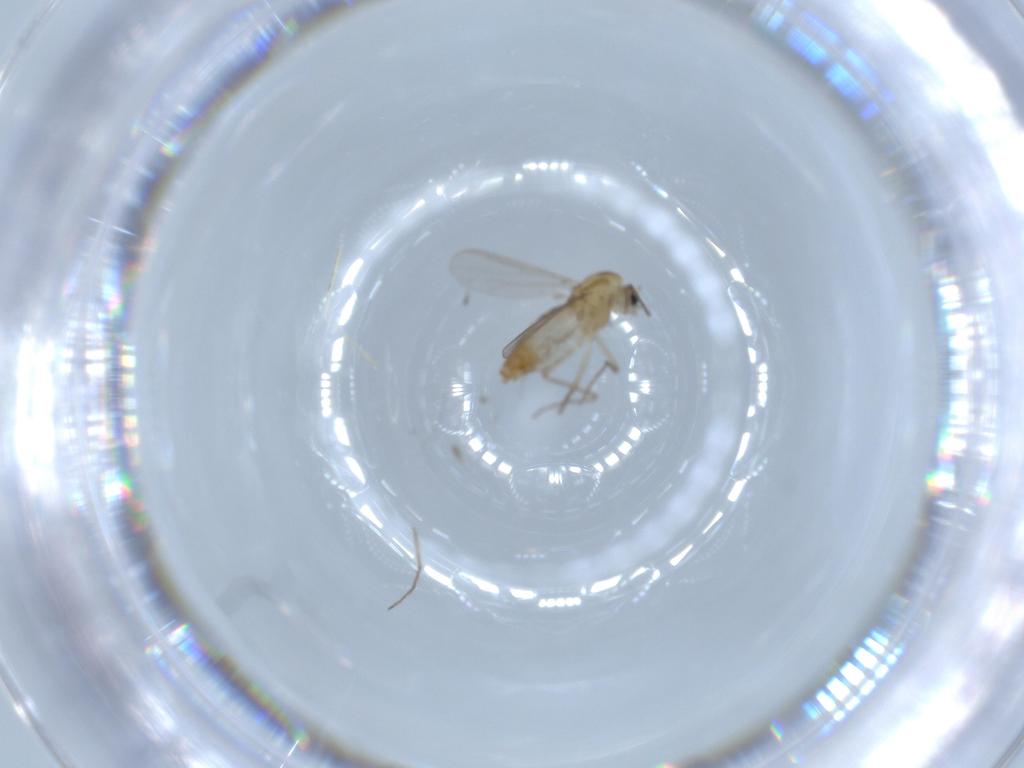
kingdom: Animalia
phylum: Arthropoda
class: Insecta
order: Diptera
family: Chironomidae
